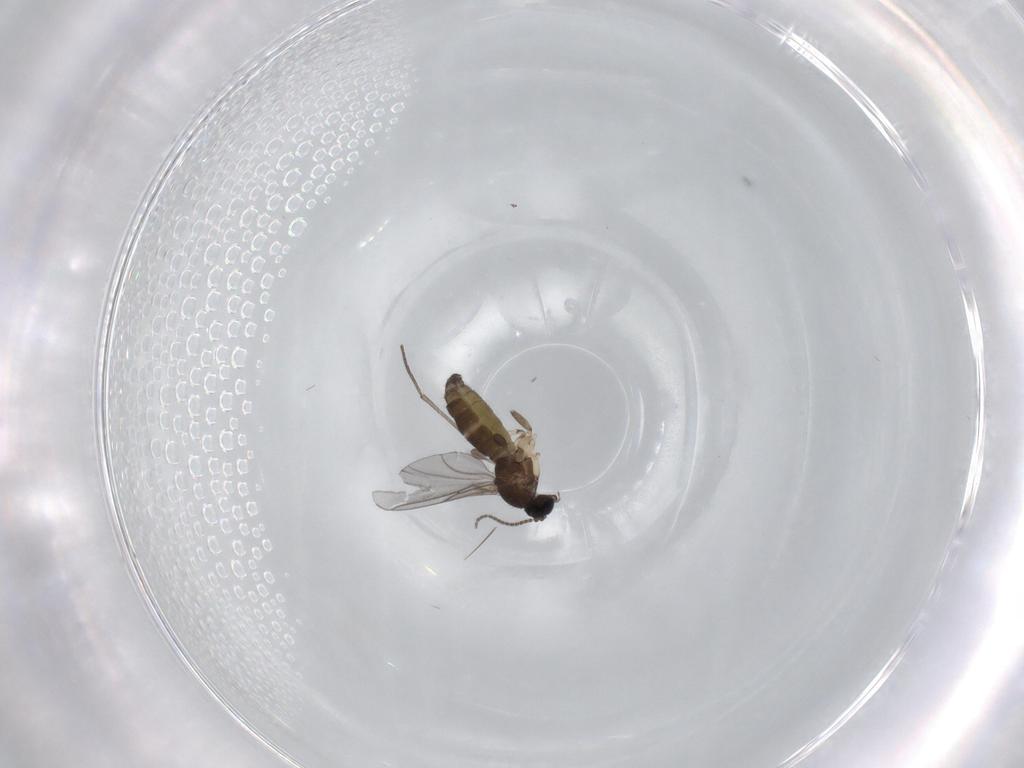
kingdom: Animalia
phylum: Arthropoda
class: Insecta
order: Diptera
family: Sciaridae
